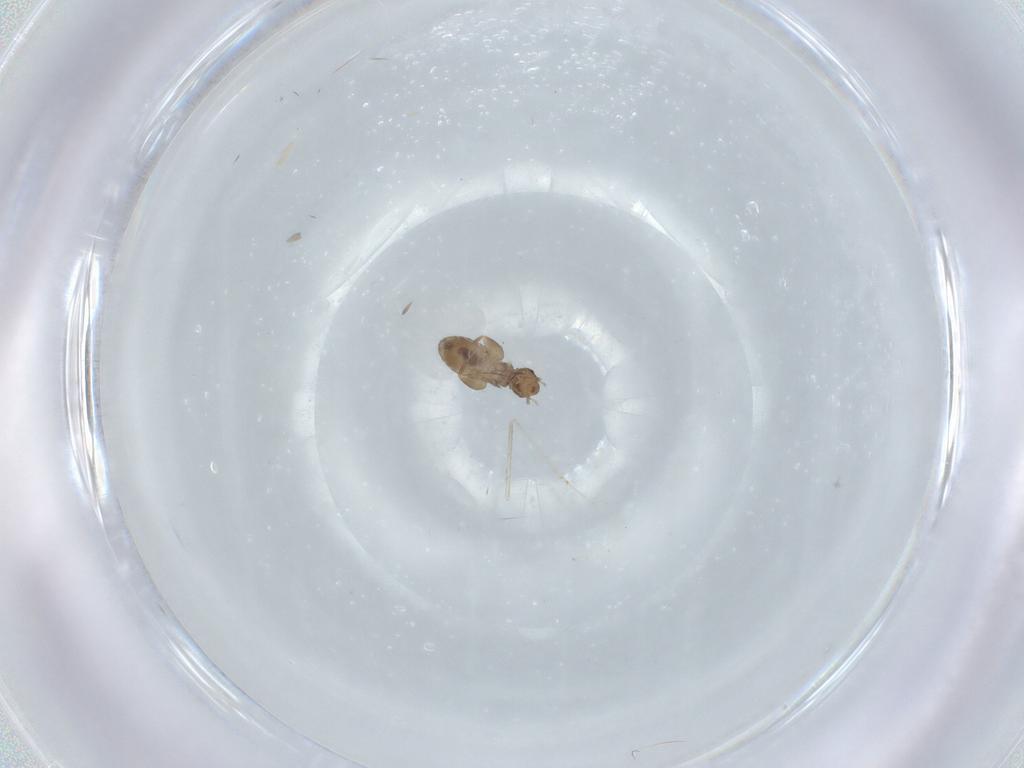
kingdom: Animalia
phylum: Arthropoda
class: Insecta
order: Psocodea
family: Liposcelididae
